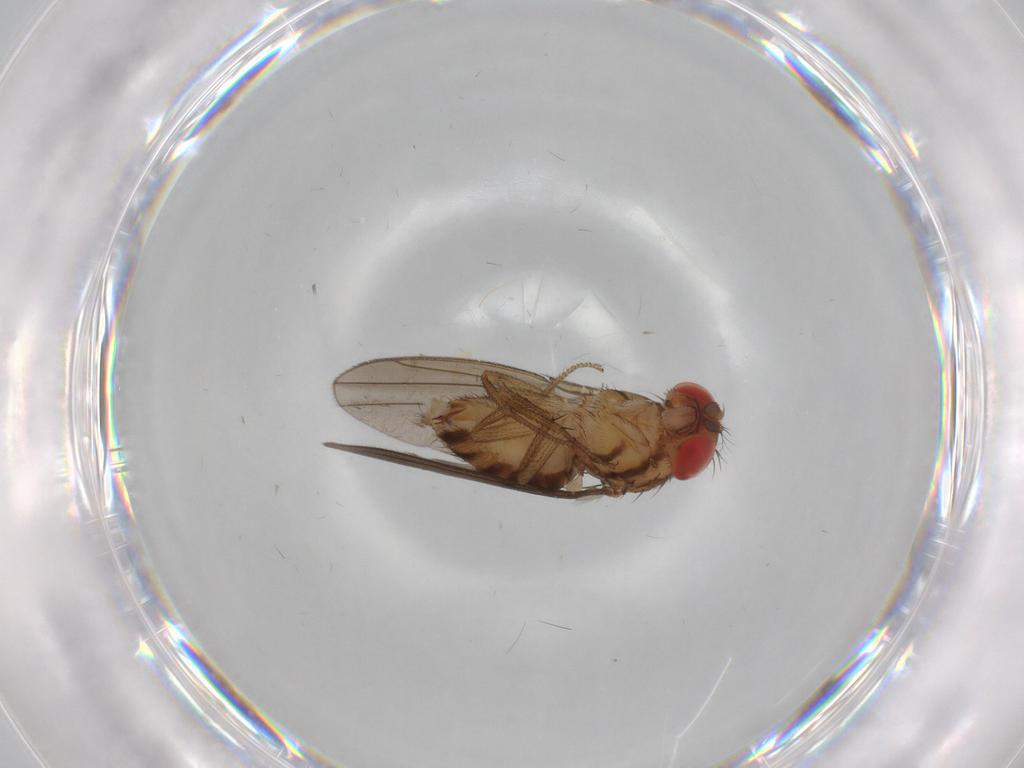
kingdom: Animalia
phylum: Arthropoda
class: Insecta
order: Diptera
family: Drosophilidae
